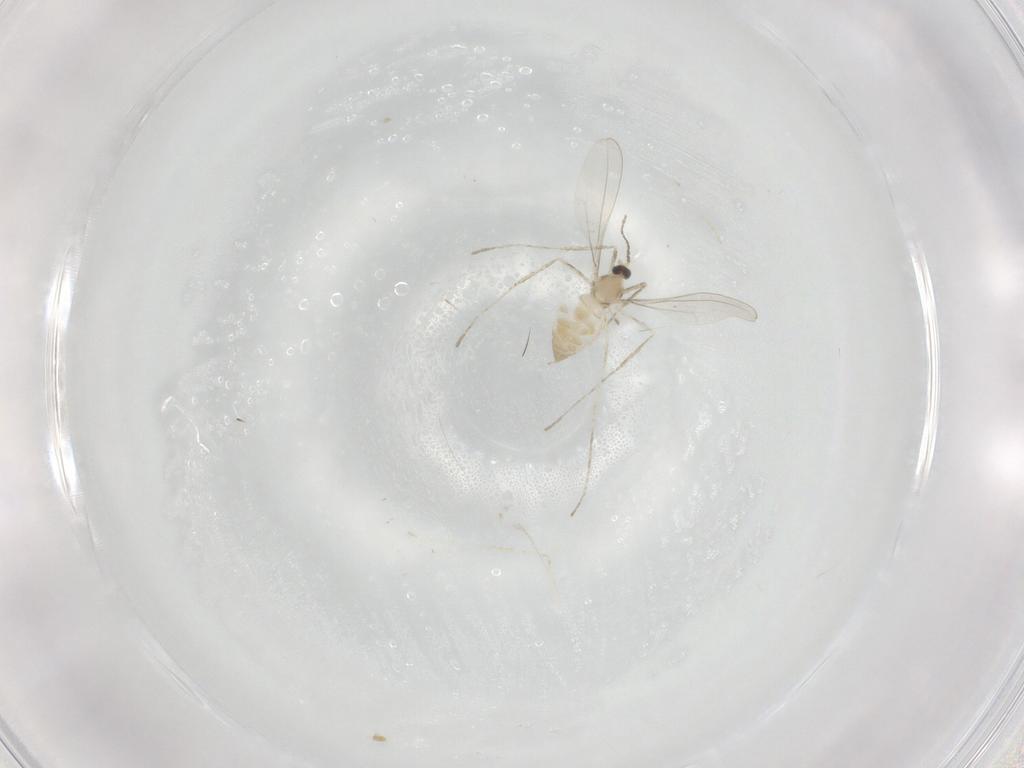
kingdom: Animalia
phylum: Arthropoda
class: Insecta
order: Diptera
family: Cecidomyiidae
